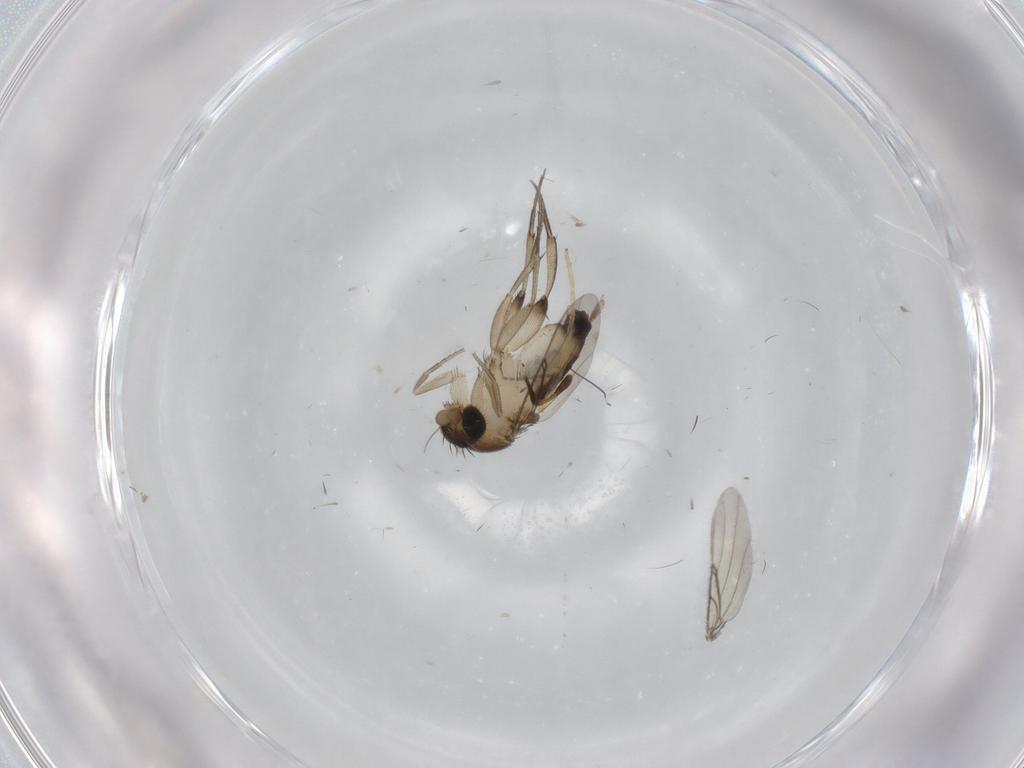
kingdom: Animalia
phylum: Arthropoda
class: Insecta
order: Diptera
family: Phoridae
